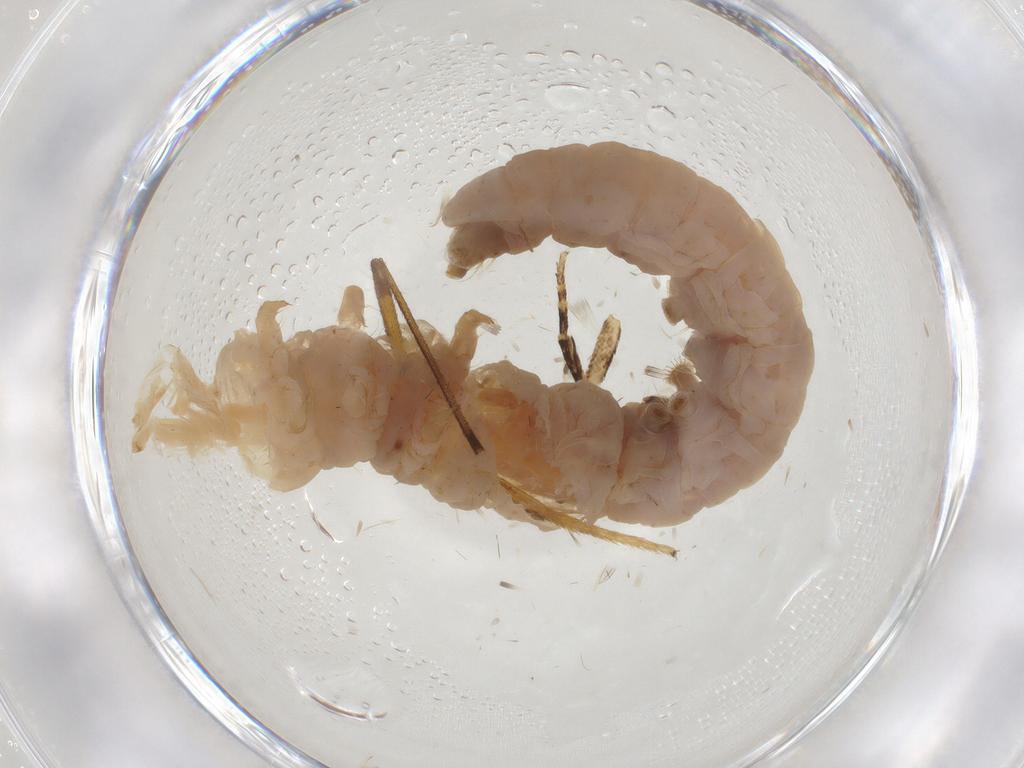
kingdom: Animalia
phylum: Arthropoda
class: Insecta
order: Lepidoptera
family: Gelechiidae
